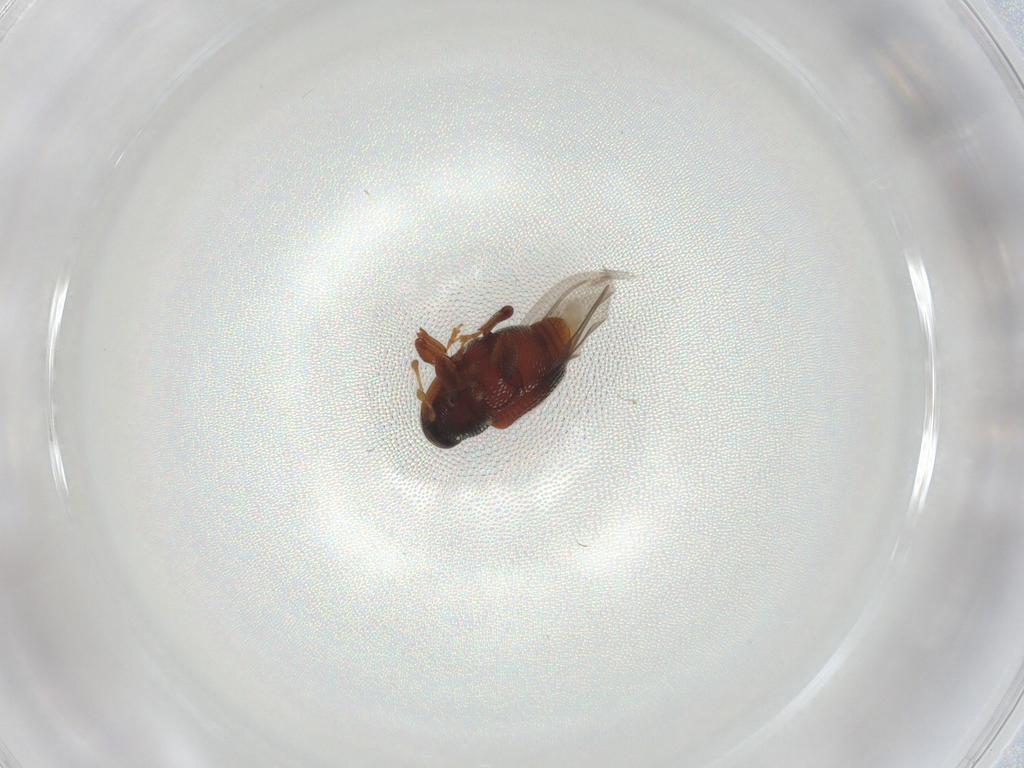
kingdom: Animalia
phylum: Arthropoda
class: Insecta
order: Coleoptera
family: Curculionidae
